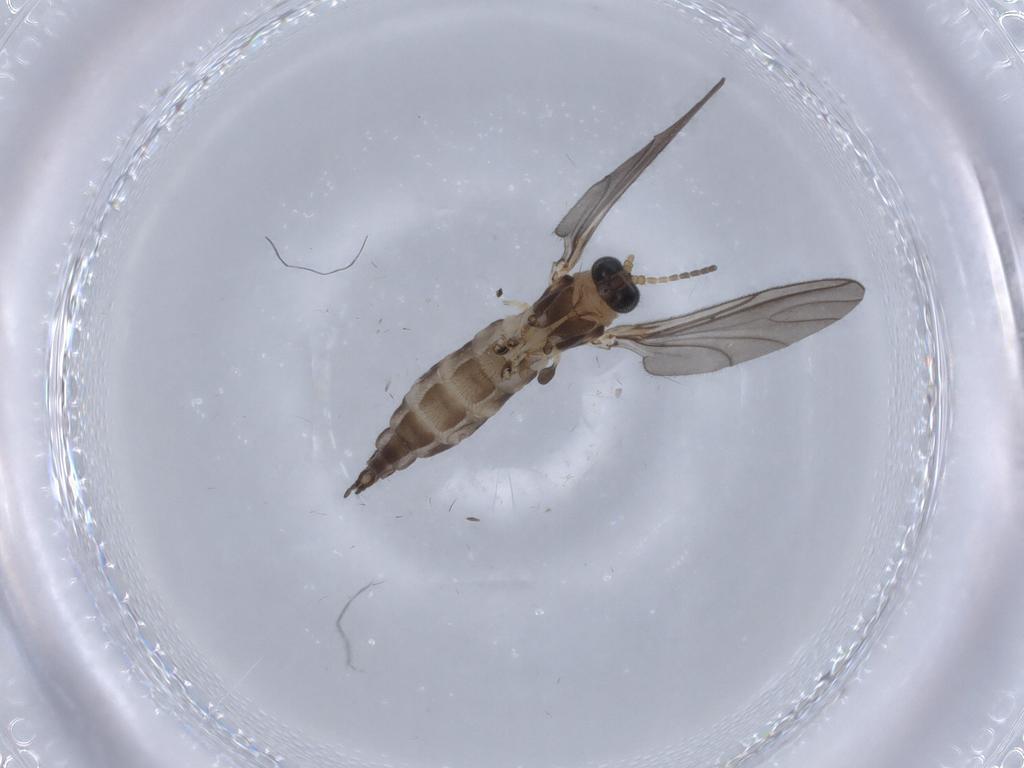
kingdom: Animalia
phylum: Arthropoda
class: Insecta
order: Diptera
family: Sciaridae
